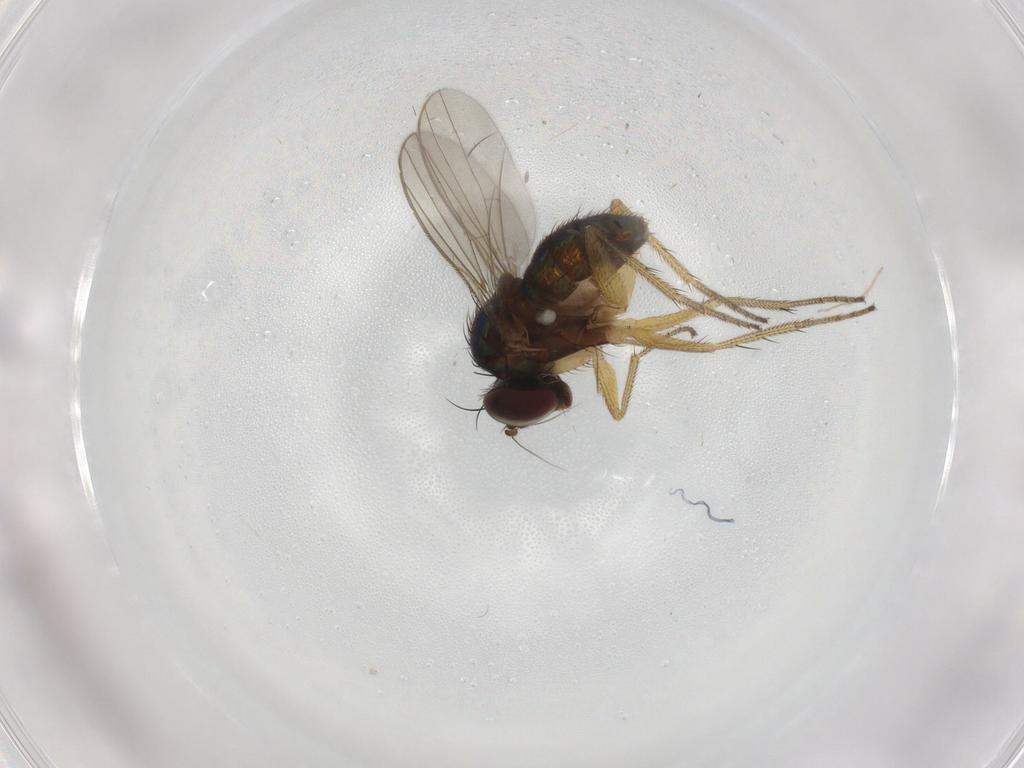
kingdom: Animalia
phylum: Arthropoda
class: Insecta
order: Diptera
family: Dolichopodidae
